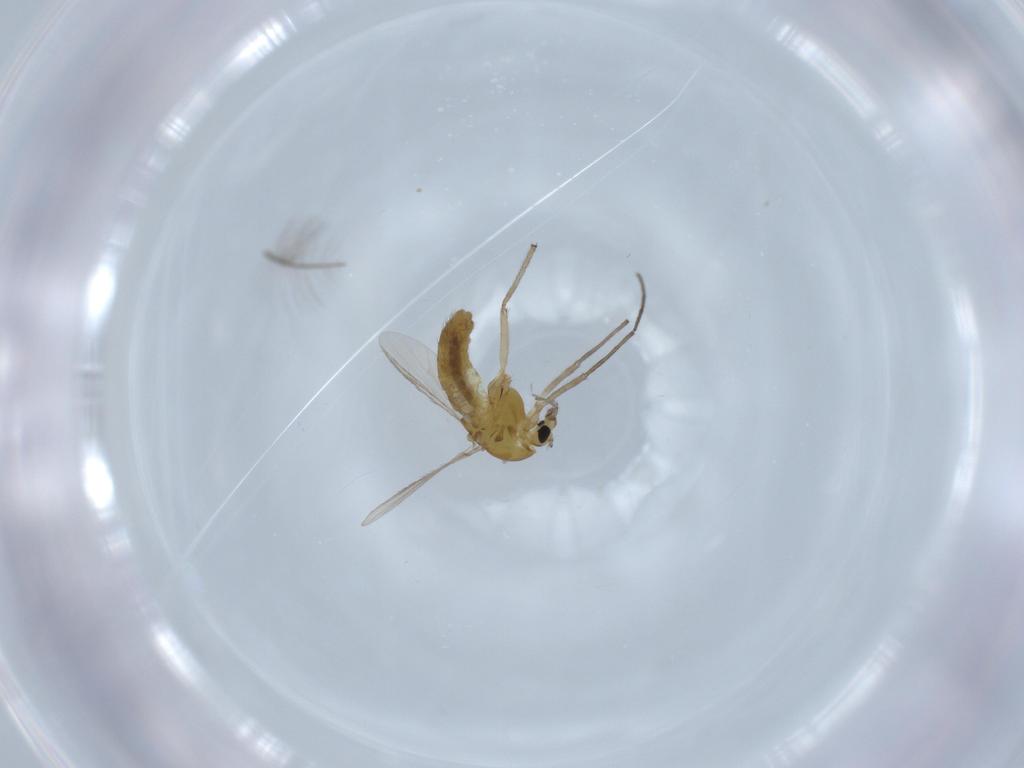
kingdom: Animalia
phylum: Arthropoda
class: Insecta
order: Diptera
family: Chironomidae
